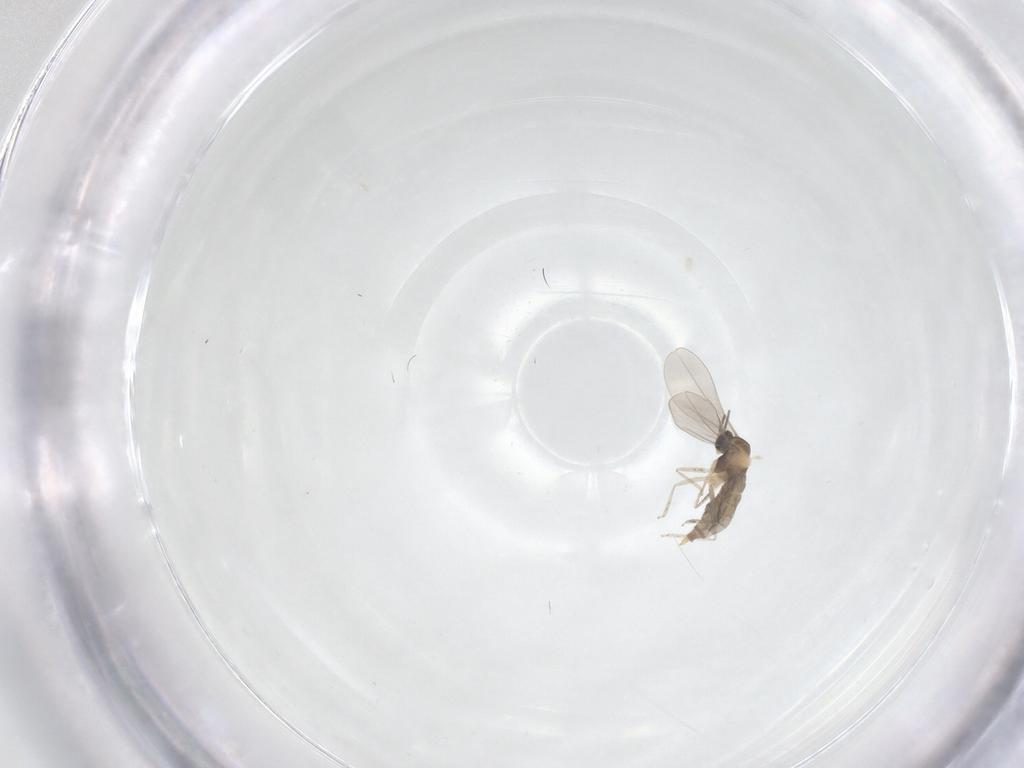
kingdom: Animalia
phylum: Arthropoda
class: Insecta
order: Diptera
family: Cecidomyiidae
